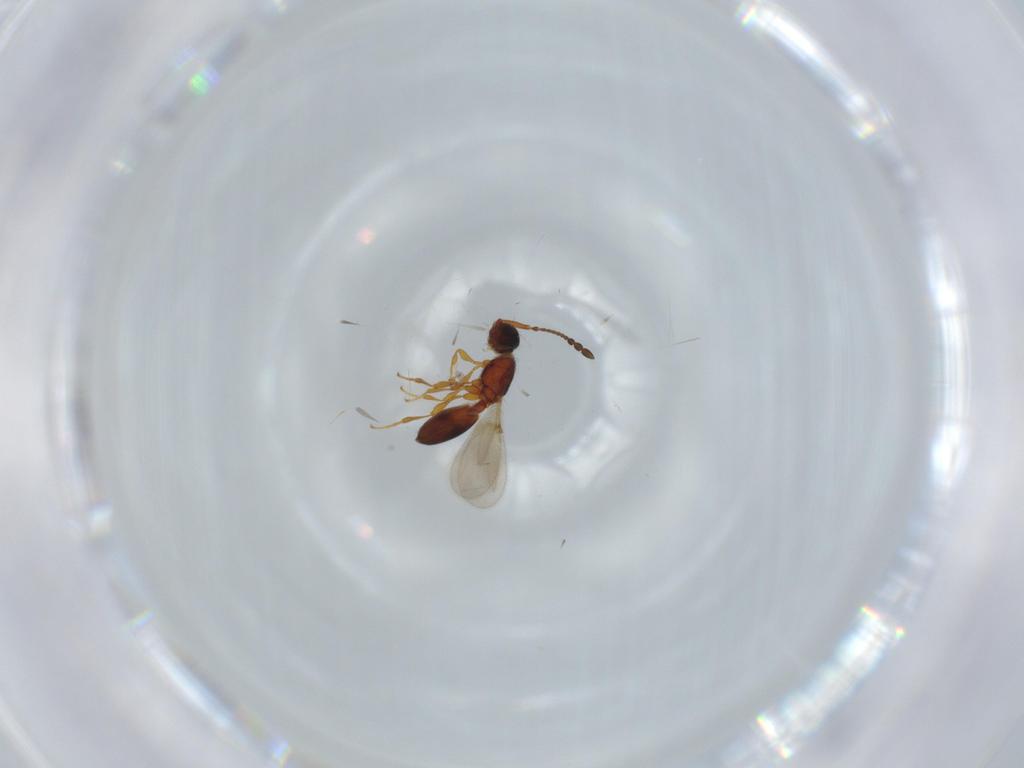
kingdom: Animalia
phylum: Arthropoda
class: Insecta
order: Hymenoptera
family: Diapriidae
